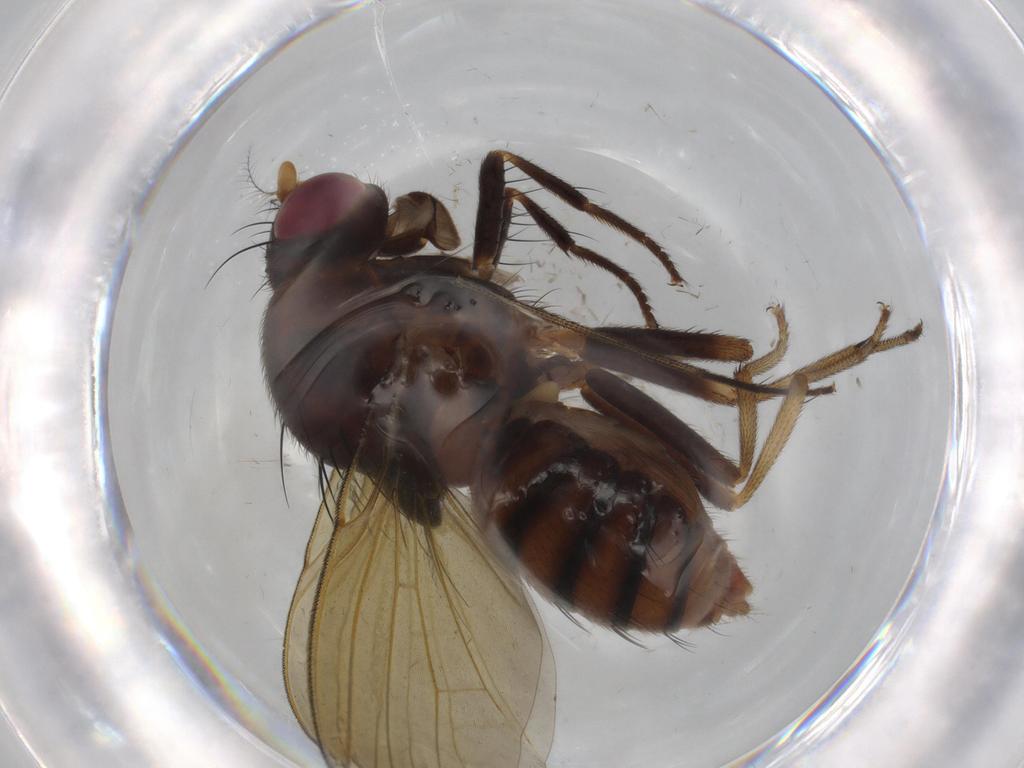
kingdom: Animalia
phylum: Arthropoda
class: Insecta
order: Diptera
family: Dolichopodidae
